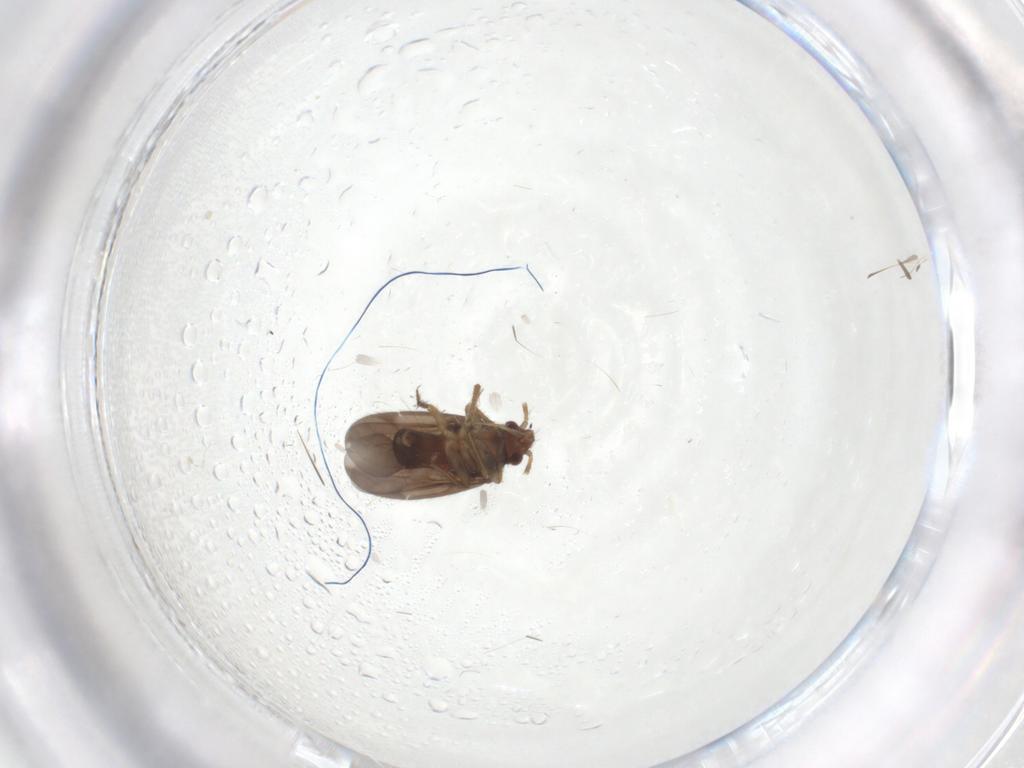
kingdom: Animalia
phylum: Arthropoda
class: Insecta
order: Hemiptera
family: Ceratocombidae
